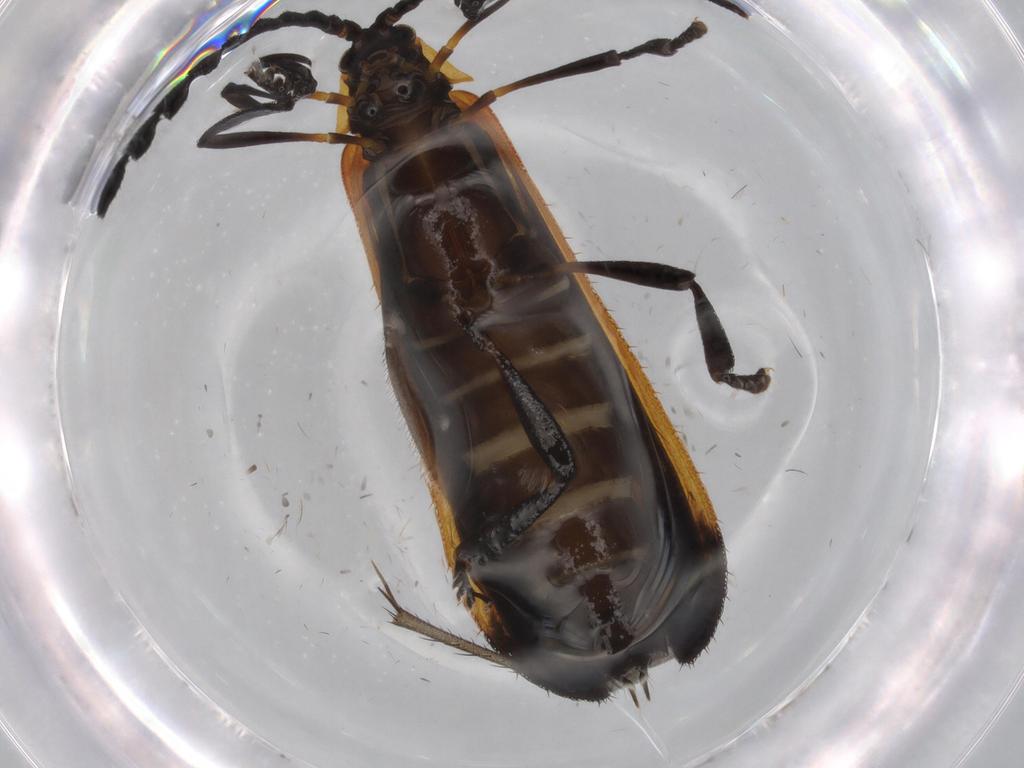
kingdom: Animalia
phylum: Arthropoda
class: Insecta
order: Coleoptera
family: Lycidae
